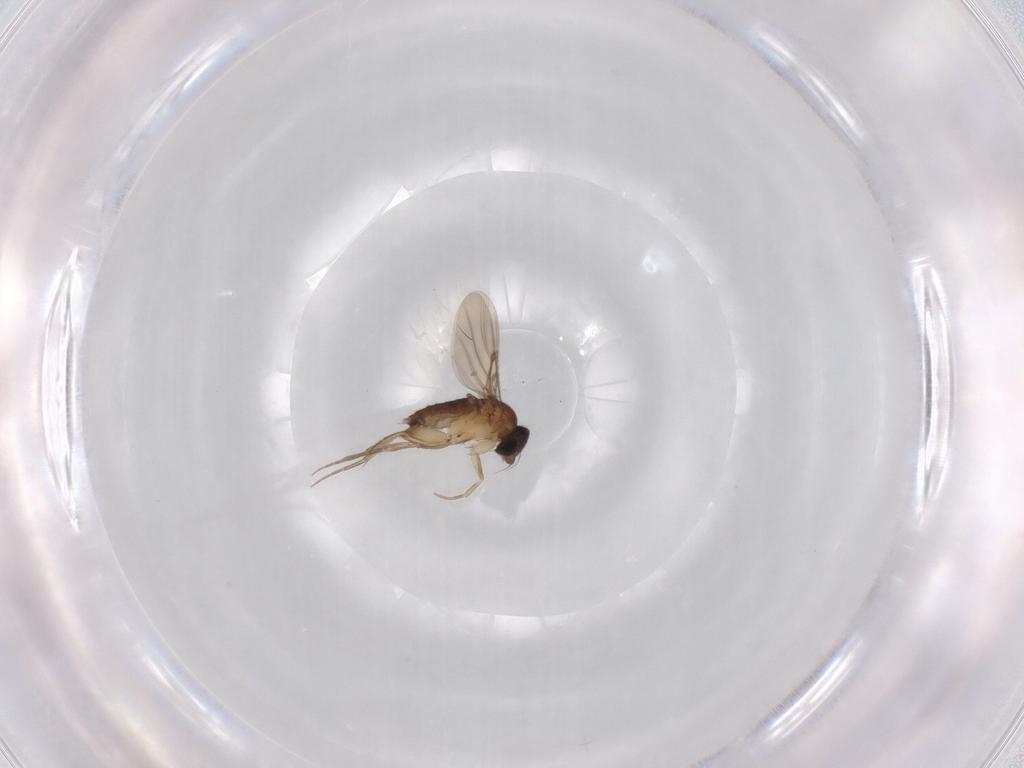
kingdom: Animalia
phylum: Arthropoda
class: Insecta
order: Diptera
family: Phoridae
